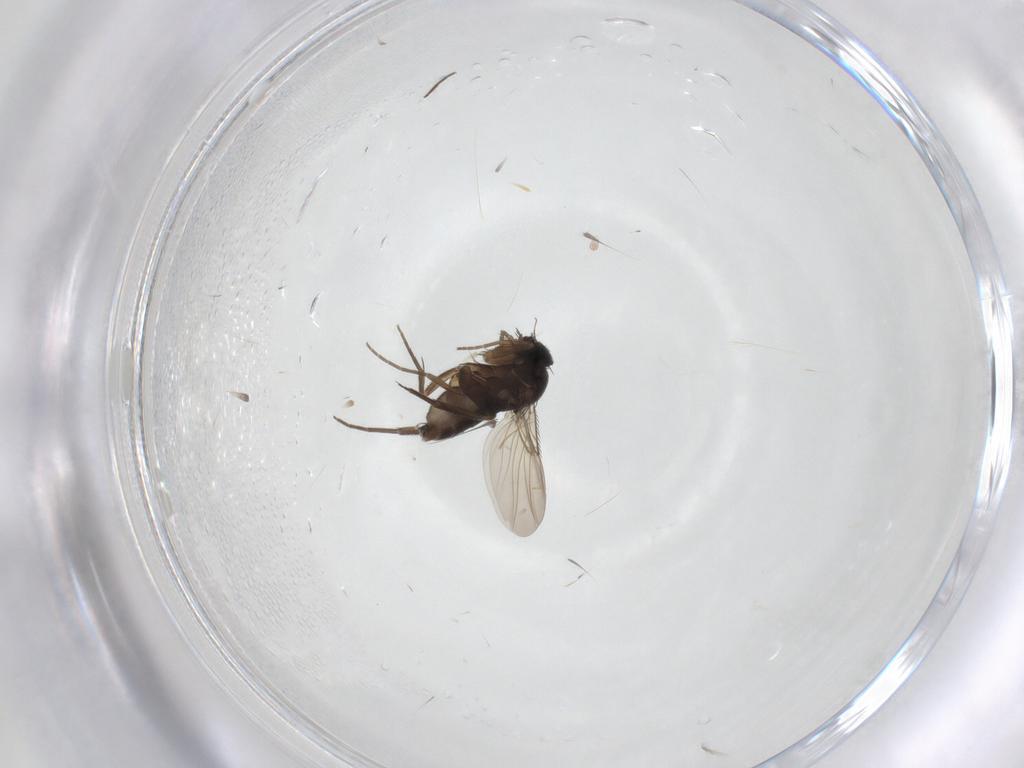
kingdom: Animalia
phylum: Arthropoda
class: Insecta
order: Diptera
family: Phoridae
